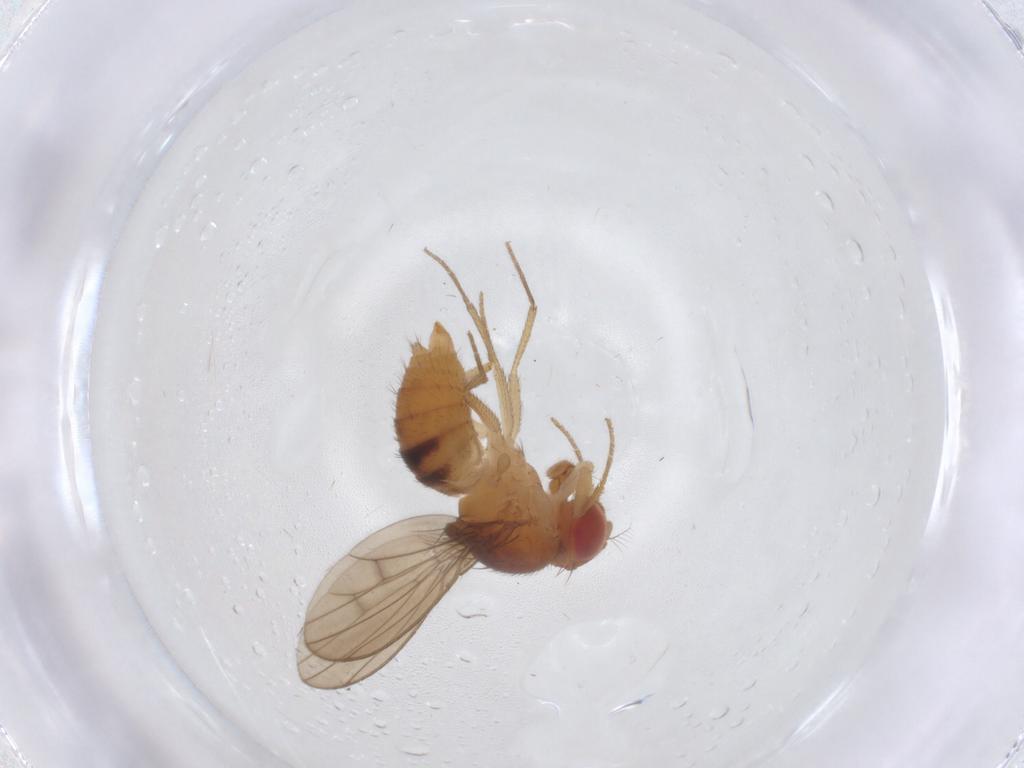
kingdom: Animalia
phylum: Arthropoda
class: Insecta
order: Diptera
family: Drosophilidae
